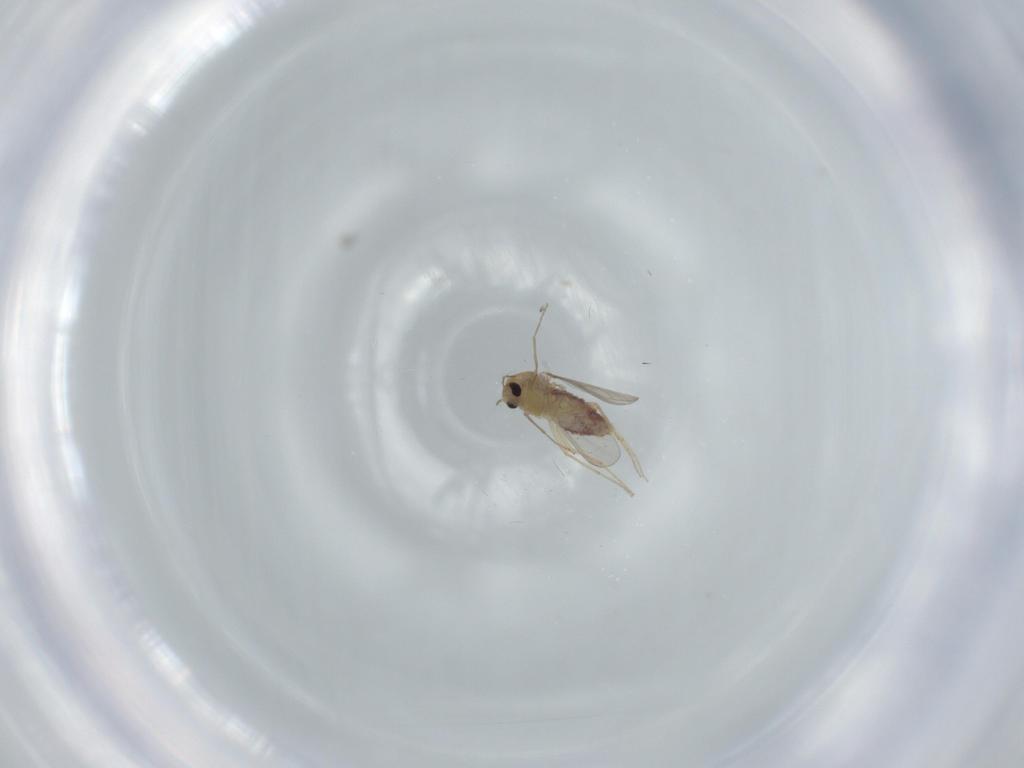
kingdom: Animalia
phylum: Arthropoda
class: Insecta
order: Diptera
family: Chironomidae
